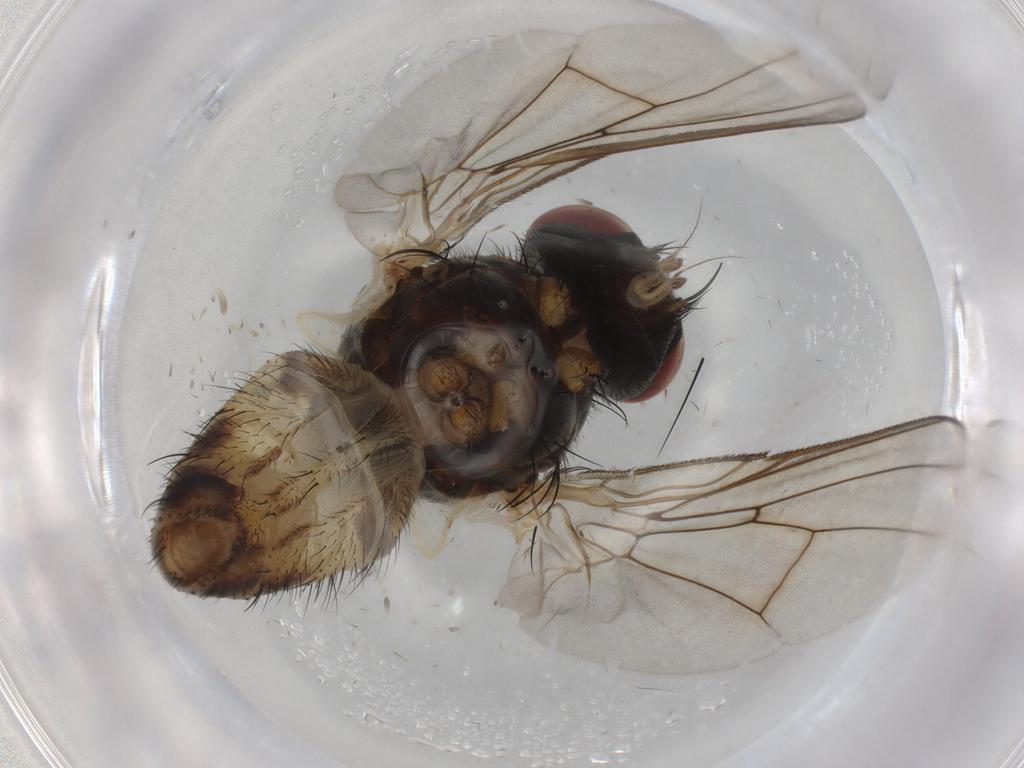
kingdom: Animalia
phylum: Arthropoda
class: Insecta
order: Diptera
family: Muscidae
